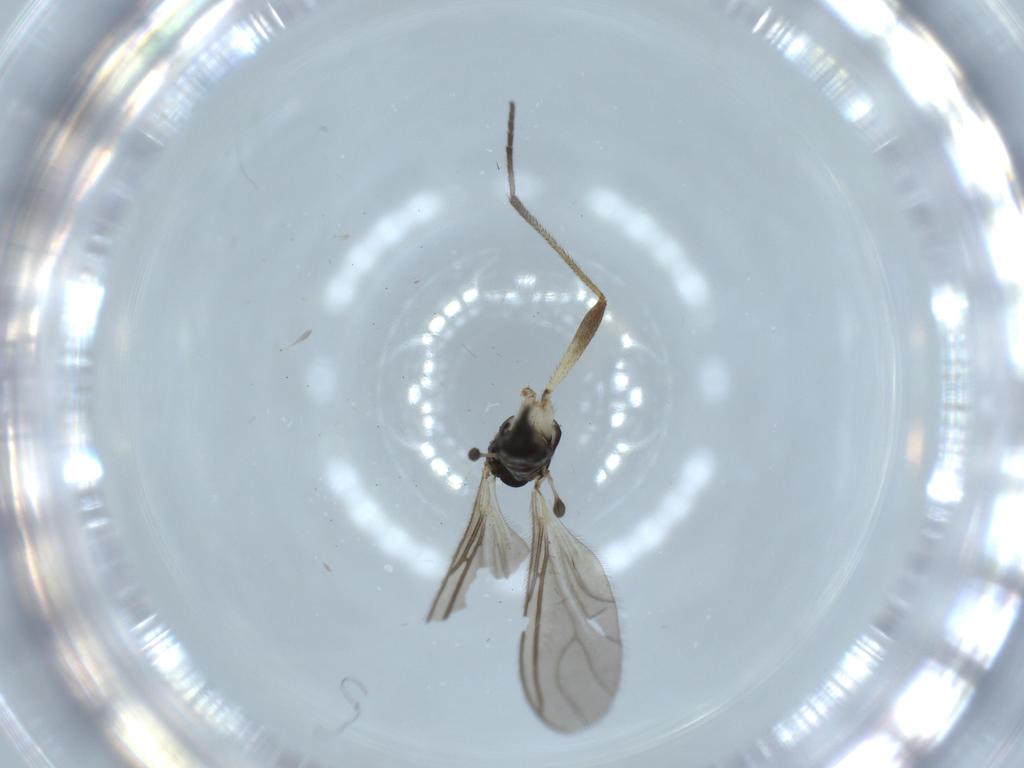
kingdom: Animalia
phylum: Arthropoda
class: Insecta
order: Diptera
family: Sciaridae
